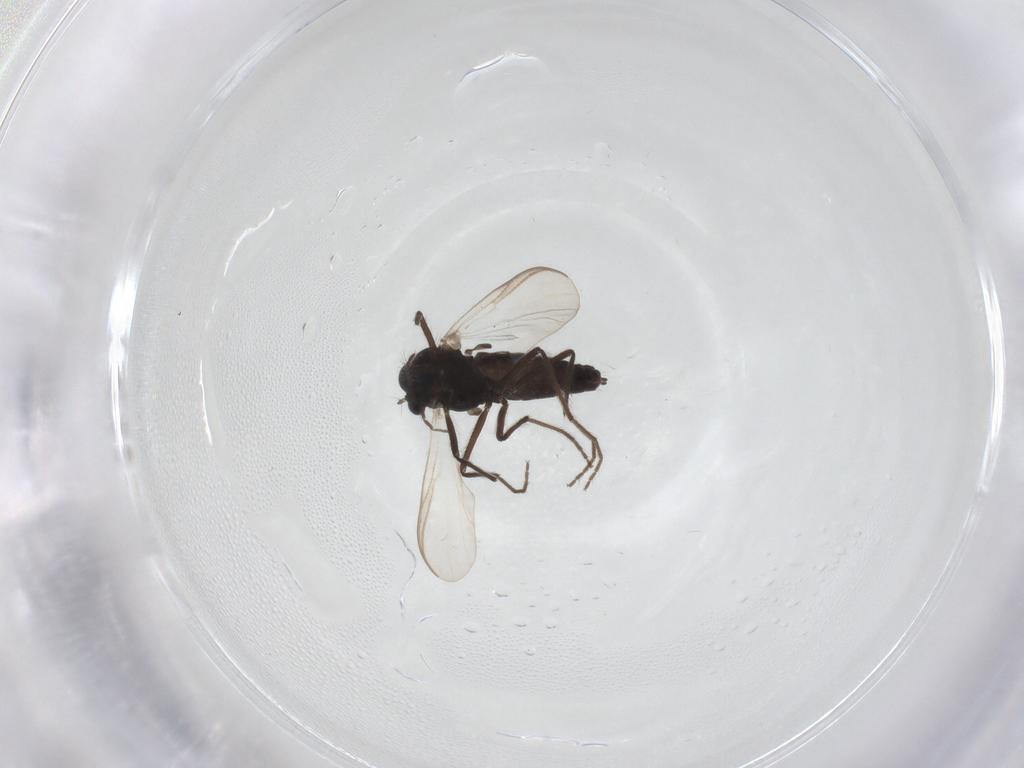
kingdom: Animalia
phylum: Arthropoda
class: Insecta
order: Diptera
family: Chironomidae
